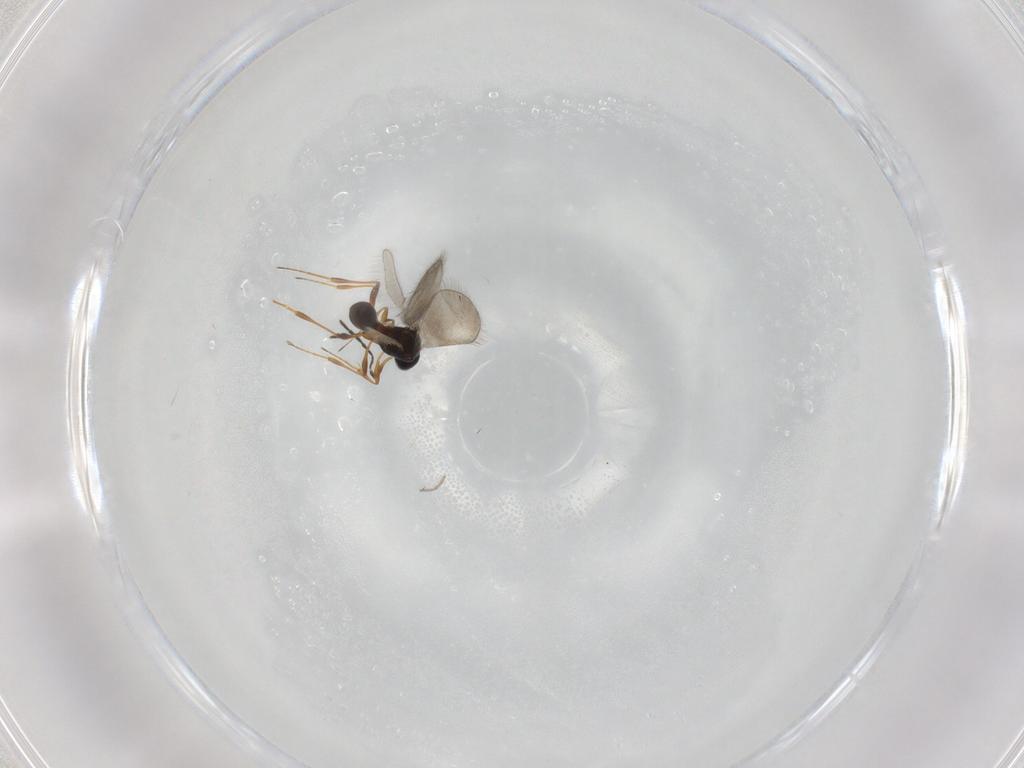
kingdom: Animalia
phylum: Arthropoda
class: Insecta
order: Hymenoptera
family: Platygastridae
